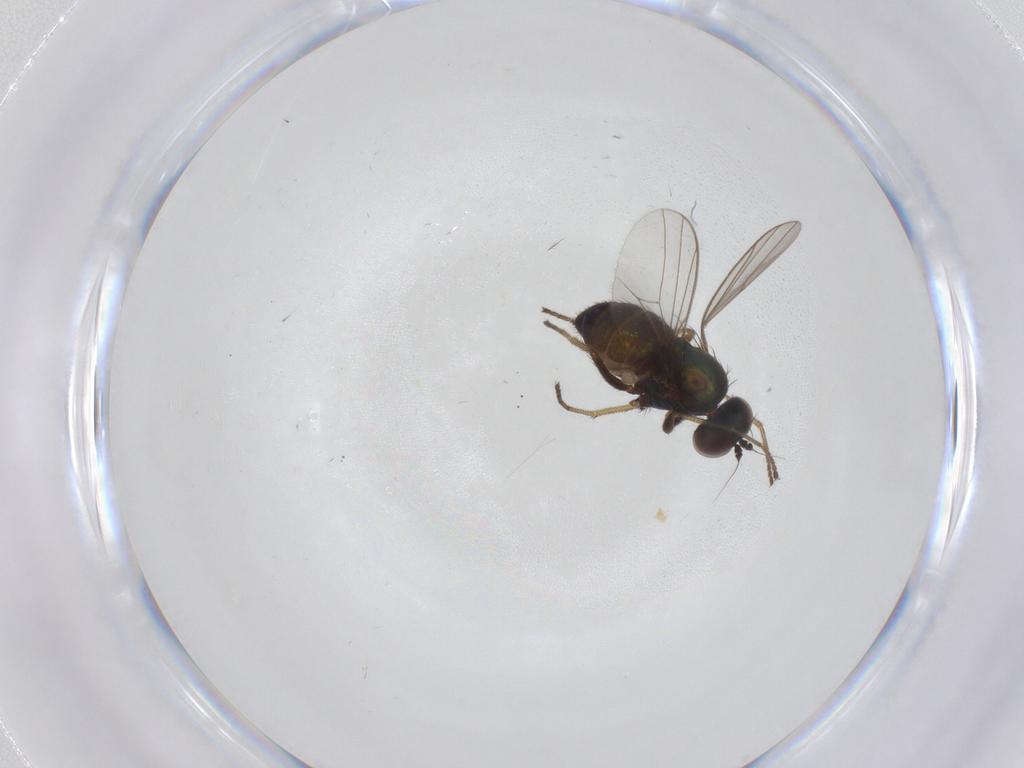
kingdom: Animalia
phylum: Arthropoda
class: Insecta
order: Diptera
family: Dolichopodidae
